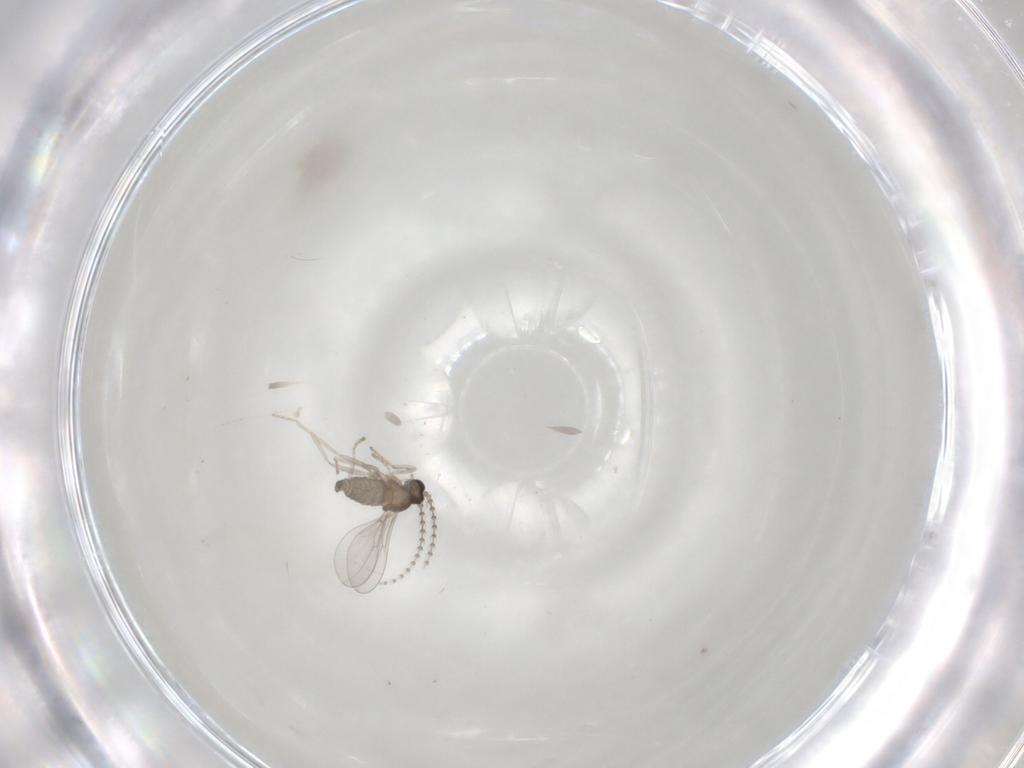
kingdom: Animalia
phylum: Arthropoda
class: Insecta
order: Diptera
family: Cecidomyiidae
